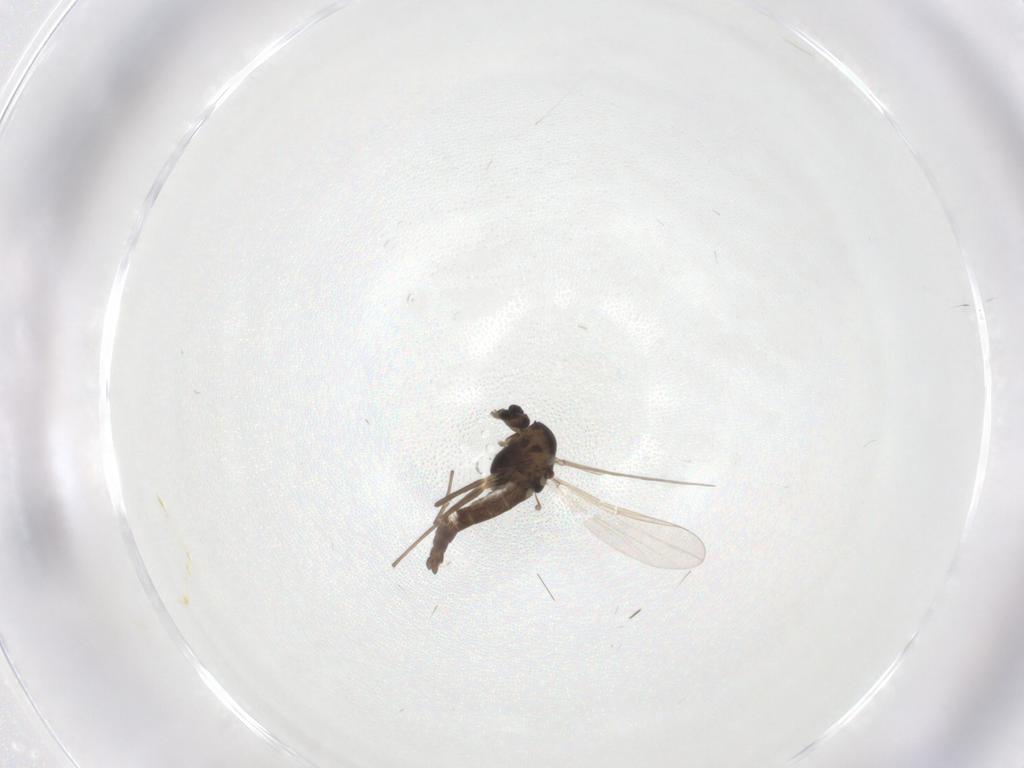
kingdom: Animalia
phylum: Arthropoda
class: Insecta
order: Diptera
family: Chironomidae
